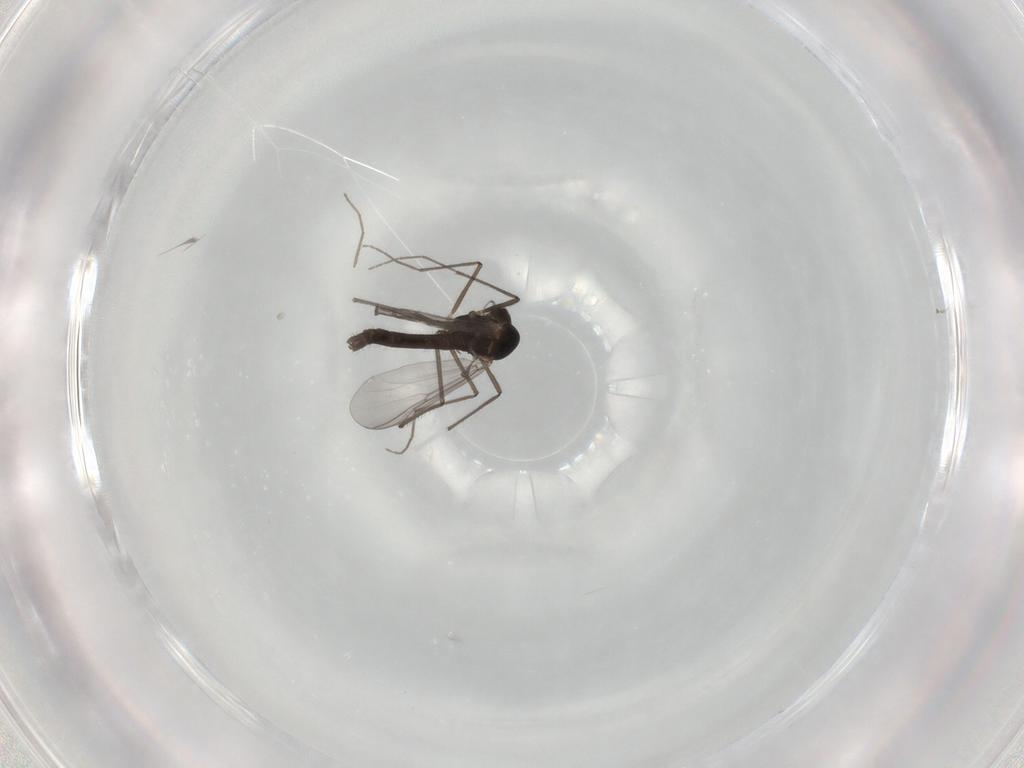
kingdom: Animalia
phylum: Arthropoda
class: Insecta
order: Diptera
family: Chironomidae
